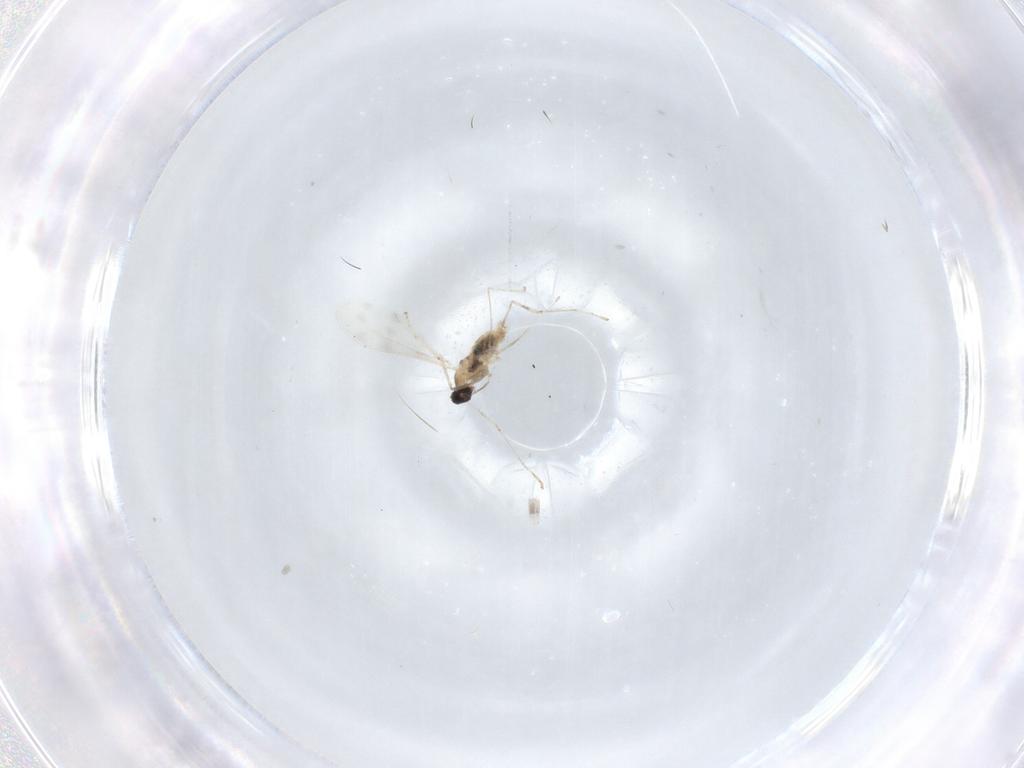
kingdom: Animalia
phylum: Arthropoda
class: Insecta
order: Diptera
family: Cecidomyiidae
